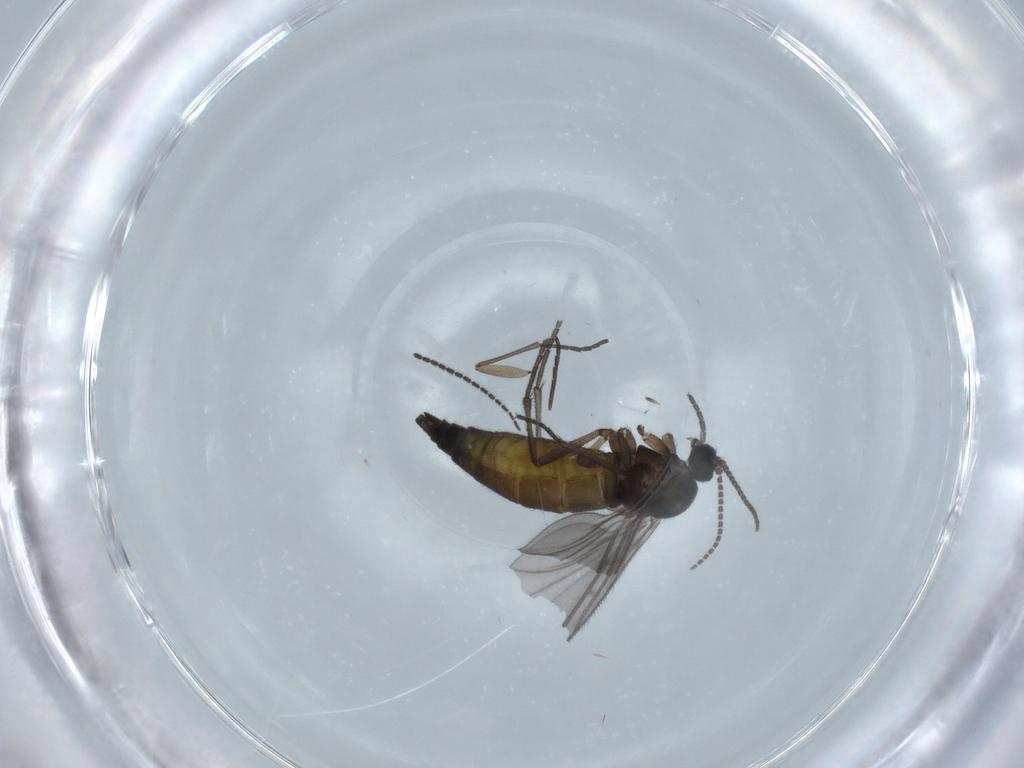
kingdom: Animalia
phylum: Arthropoda
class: Insecta
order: Diptera
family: Sciaridae
